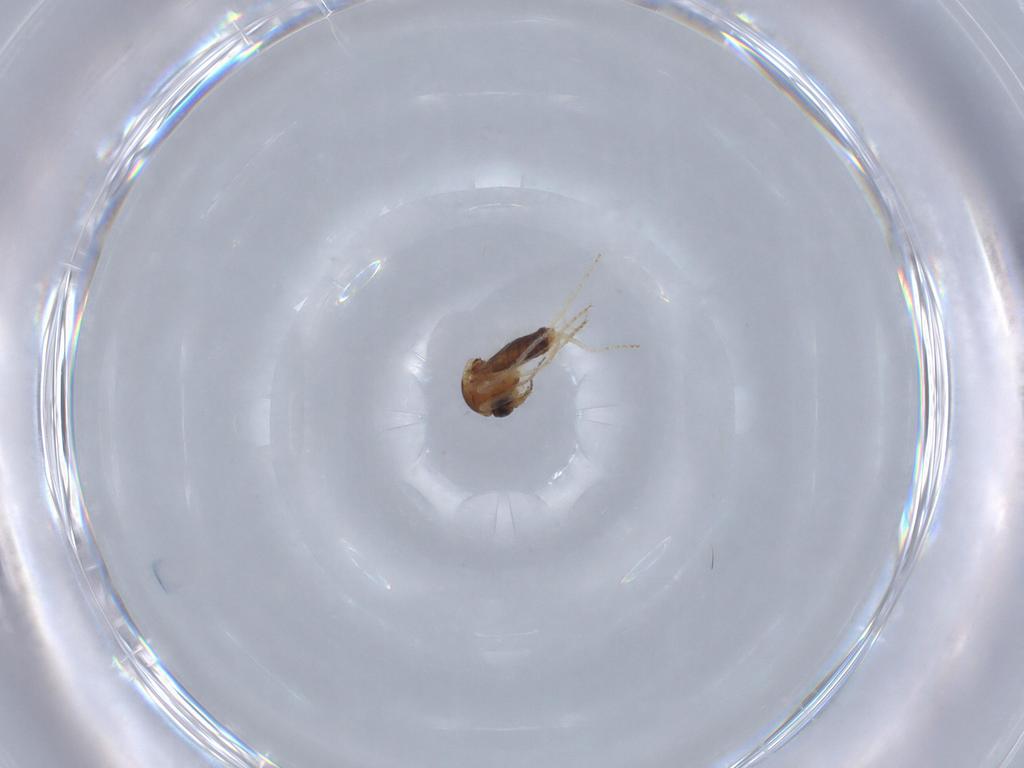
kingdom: Animalia
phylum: Arthropoda
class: Insecta
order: Diptera
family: Ceratopogonidae
